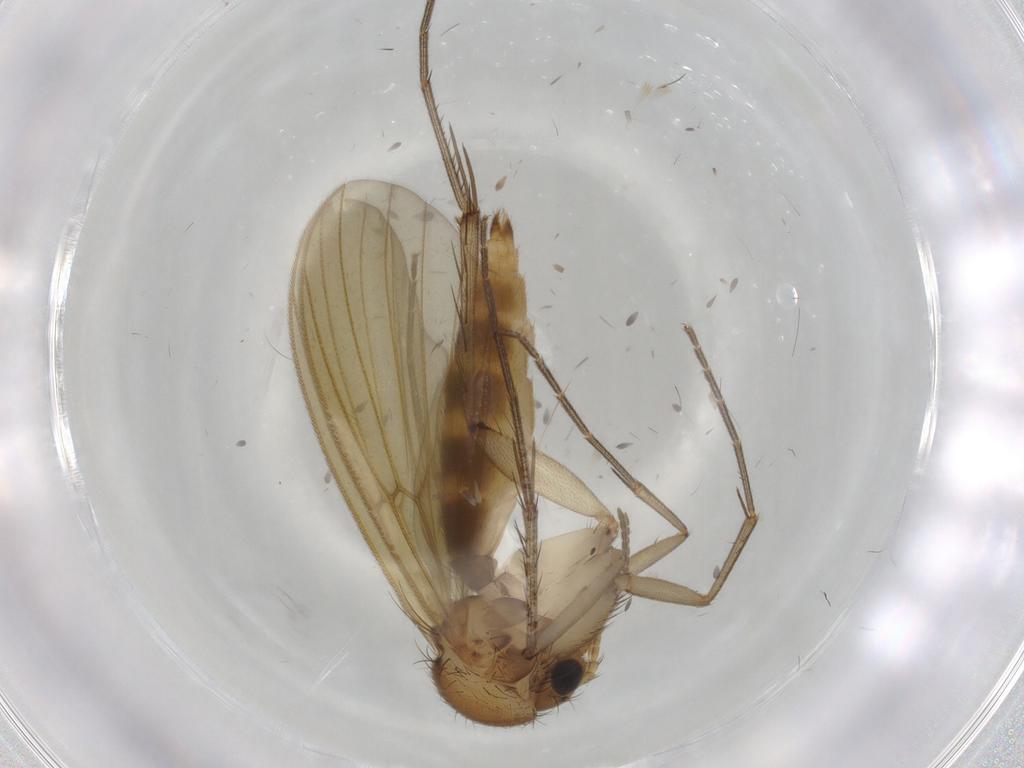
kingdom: Animalia
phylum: Arthropoda
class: Insecta
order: Diptera
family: Mycetophilidae
